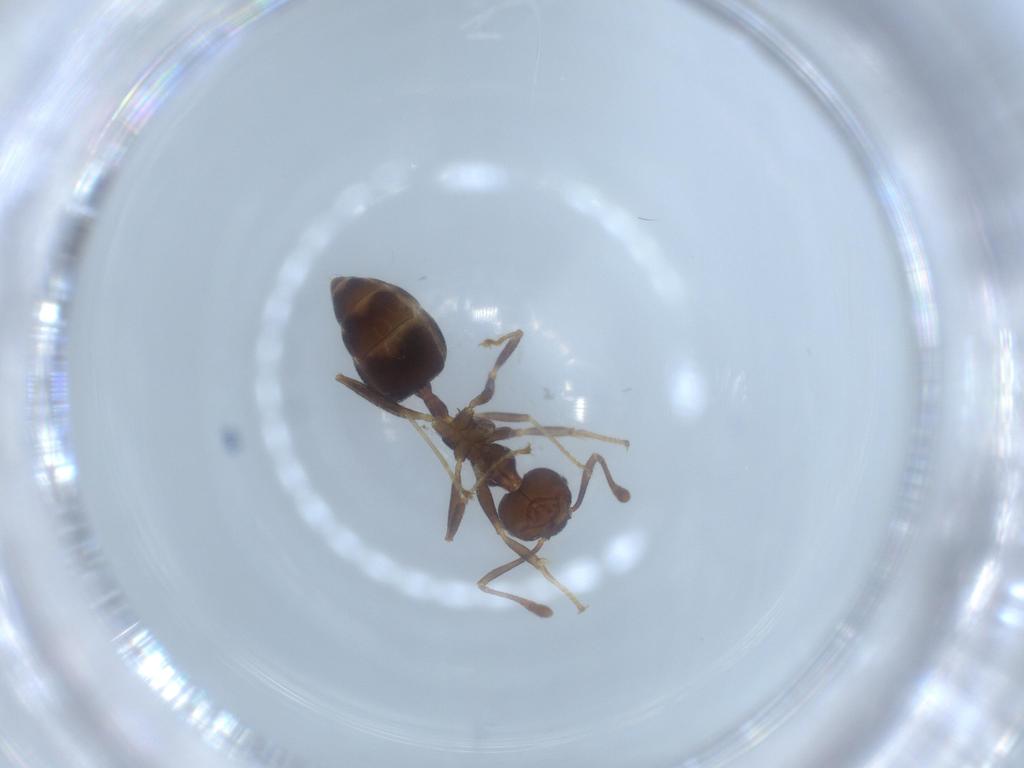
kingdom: Animalia
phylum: Arthropoda
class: Insecta
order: Hymenoptera
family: Formicidae
